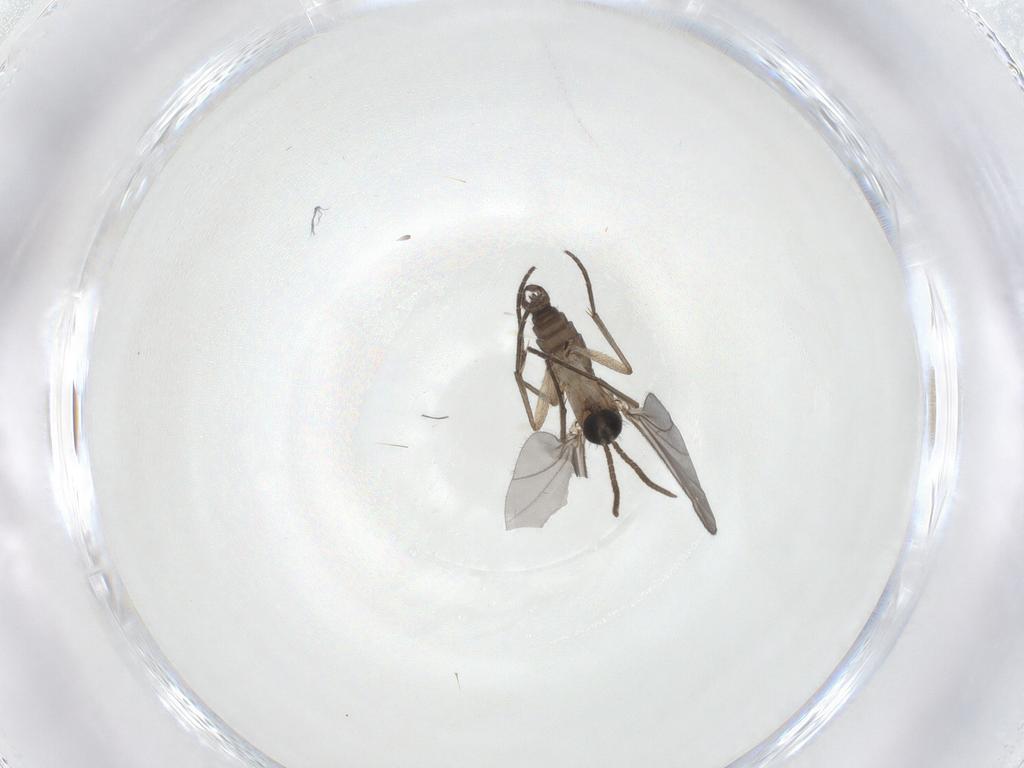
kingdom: Animalia
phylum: Arthropoda
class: Insecta
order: Diptera
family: Sciaridae
